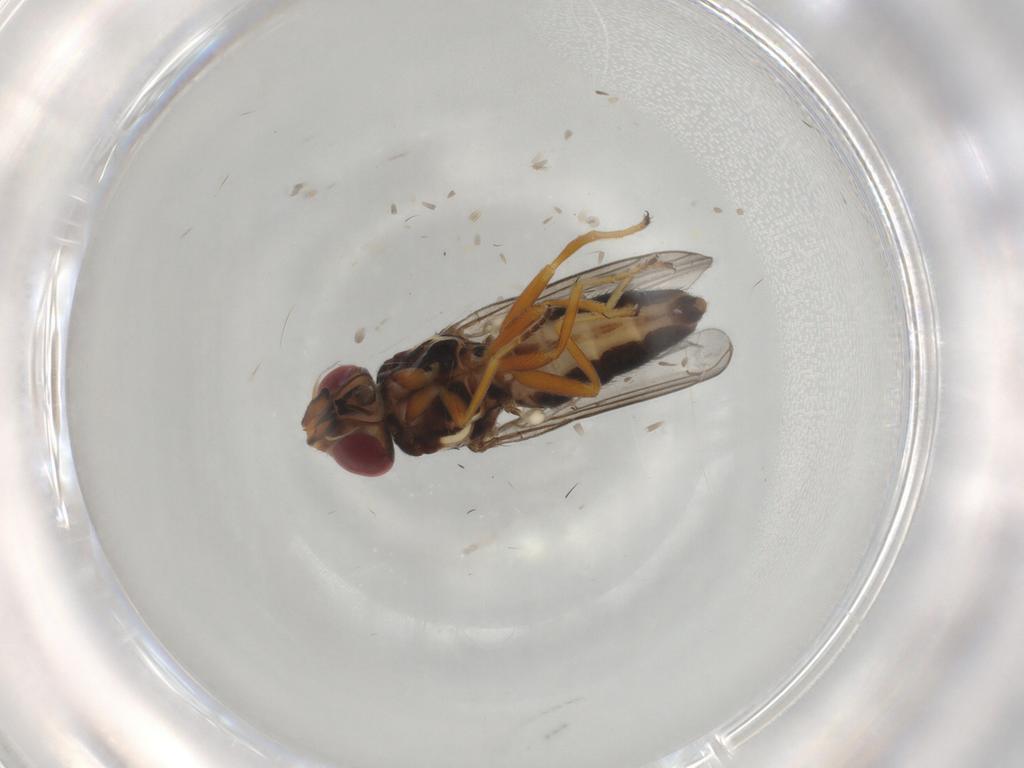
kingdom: Animalia
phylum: Arthropoda
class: Insecta
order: Diptera
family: Chloropidae
